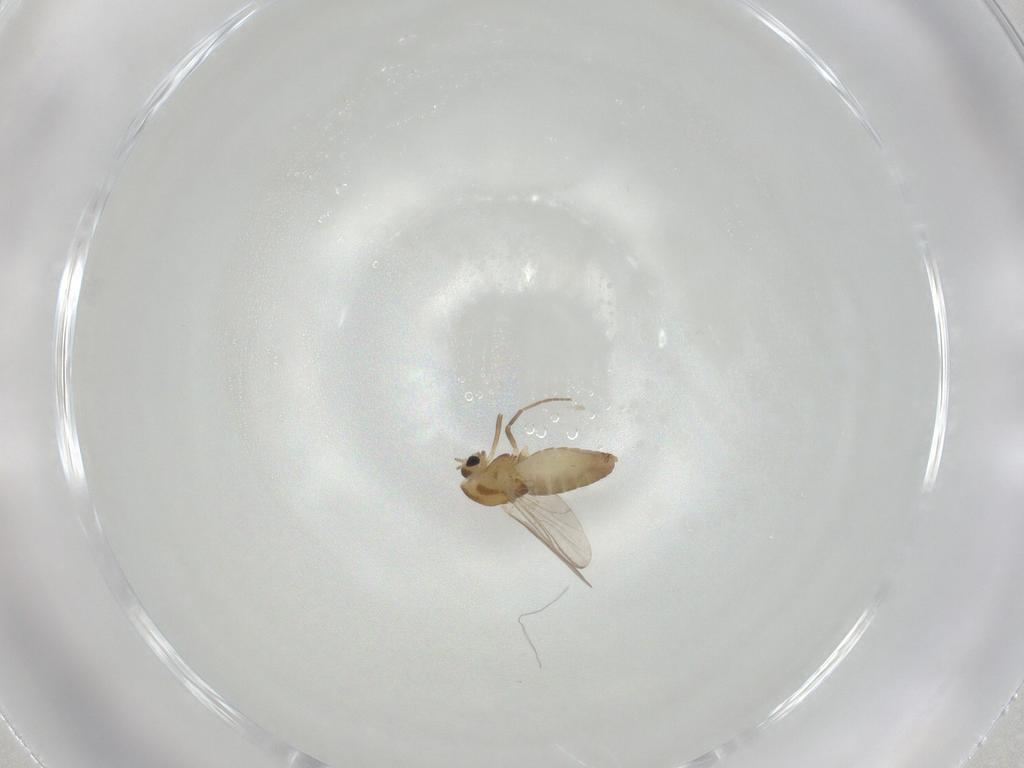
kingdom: Animalia
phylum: Arthropoda
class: Insecta
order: Diptera
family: Chironomidae
